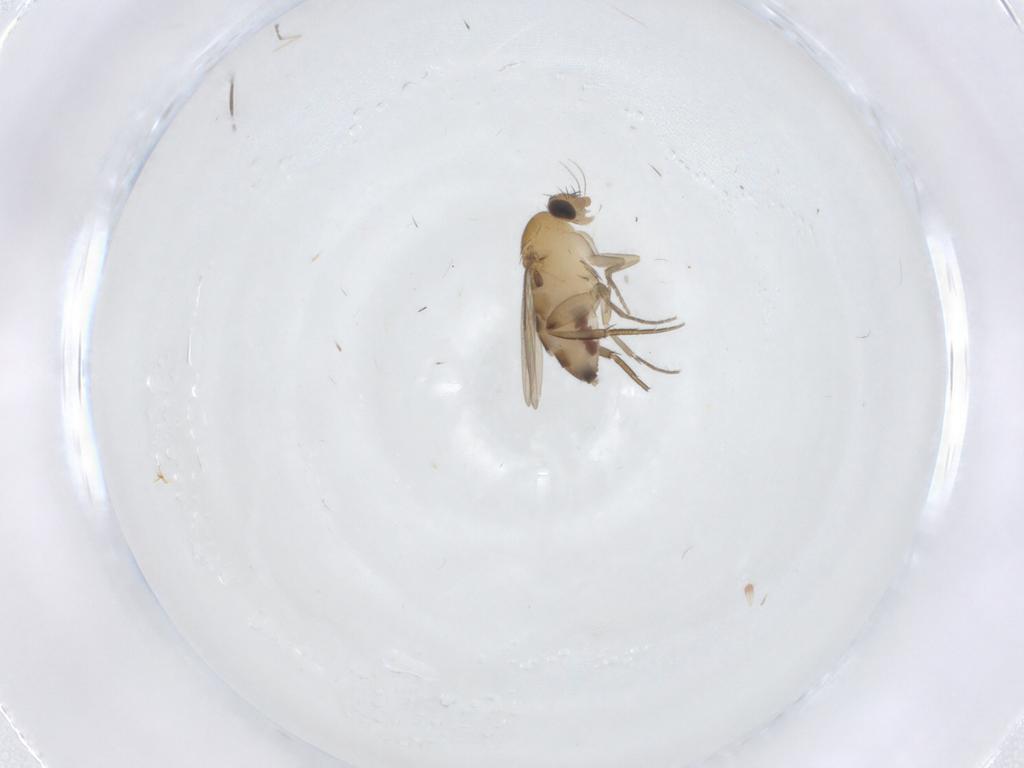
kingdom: Animalia
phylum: Arthropoda
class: Insecta
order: Diptera
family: Phoridae
